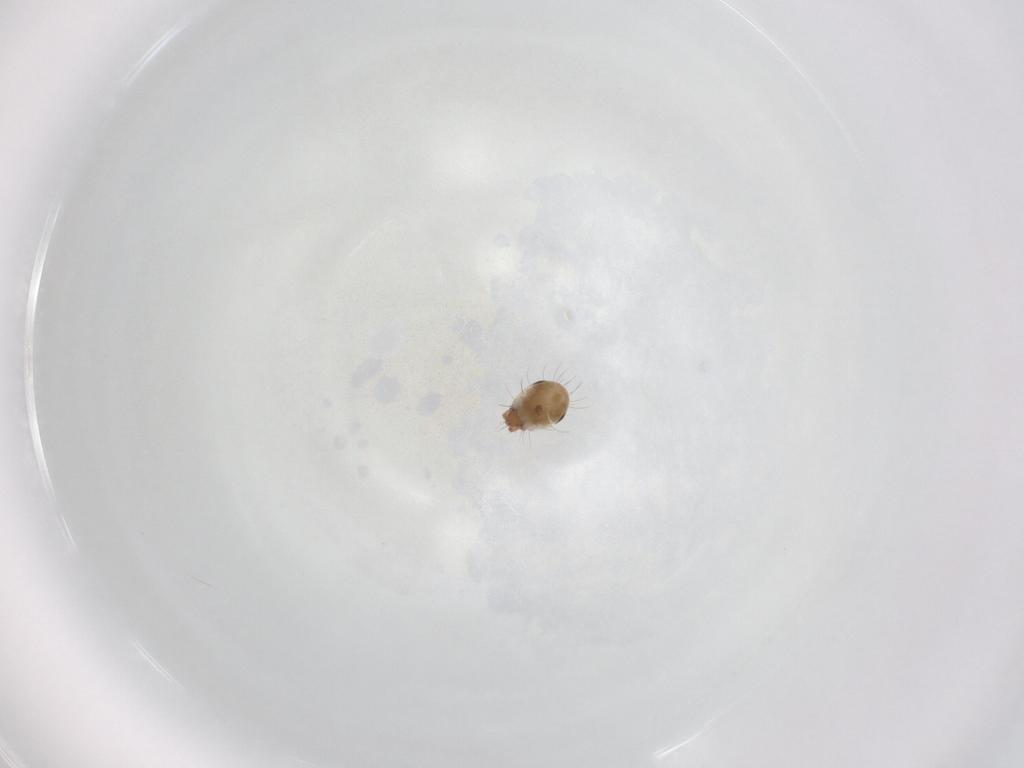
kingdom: Animalia
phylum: Arthropoda
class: Arachnida
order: Sarcoptiformes
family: Humerobatidae
